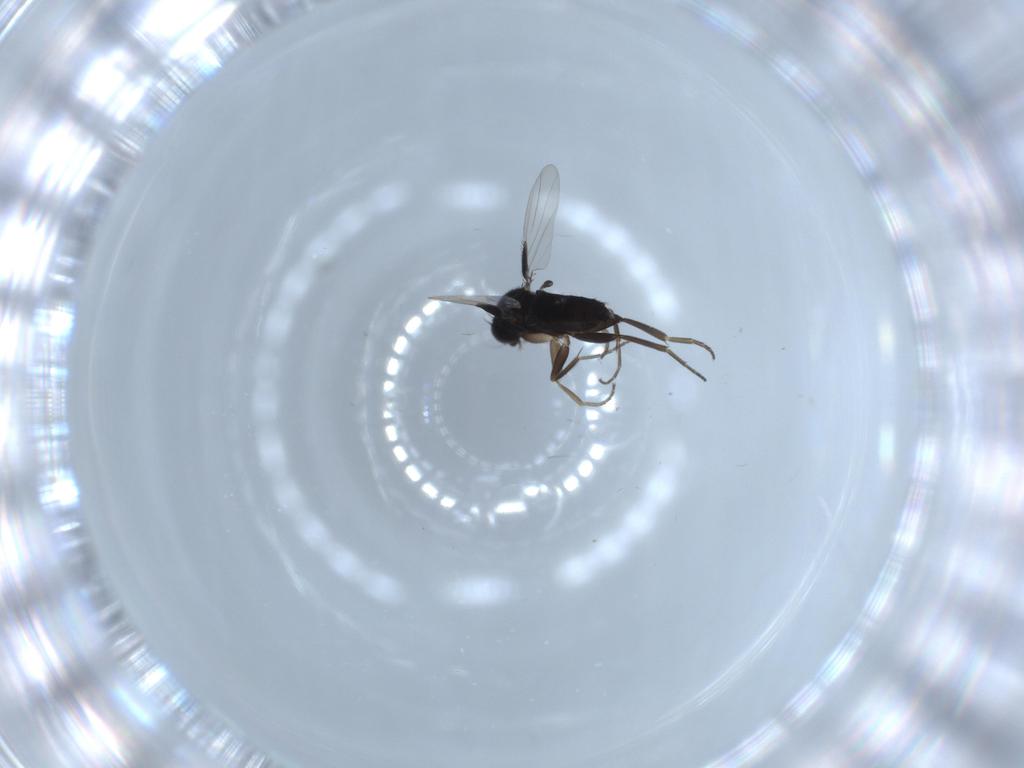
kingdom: Animalia
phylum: Arthropoda
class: Insecta
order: Diptera
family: Phoridae
